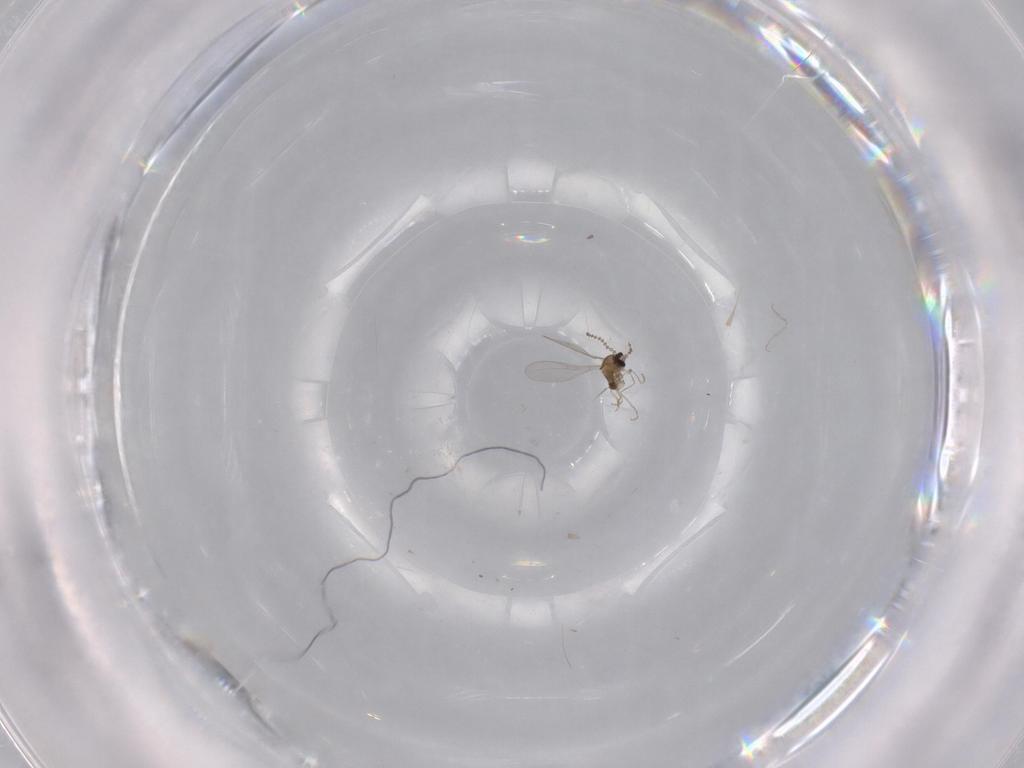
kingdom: Animalia
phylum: Arthropoda
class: Insecta
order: Diptera
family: Cecidomyiidae
